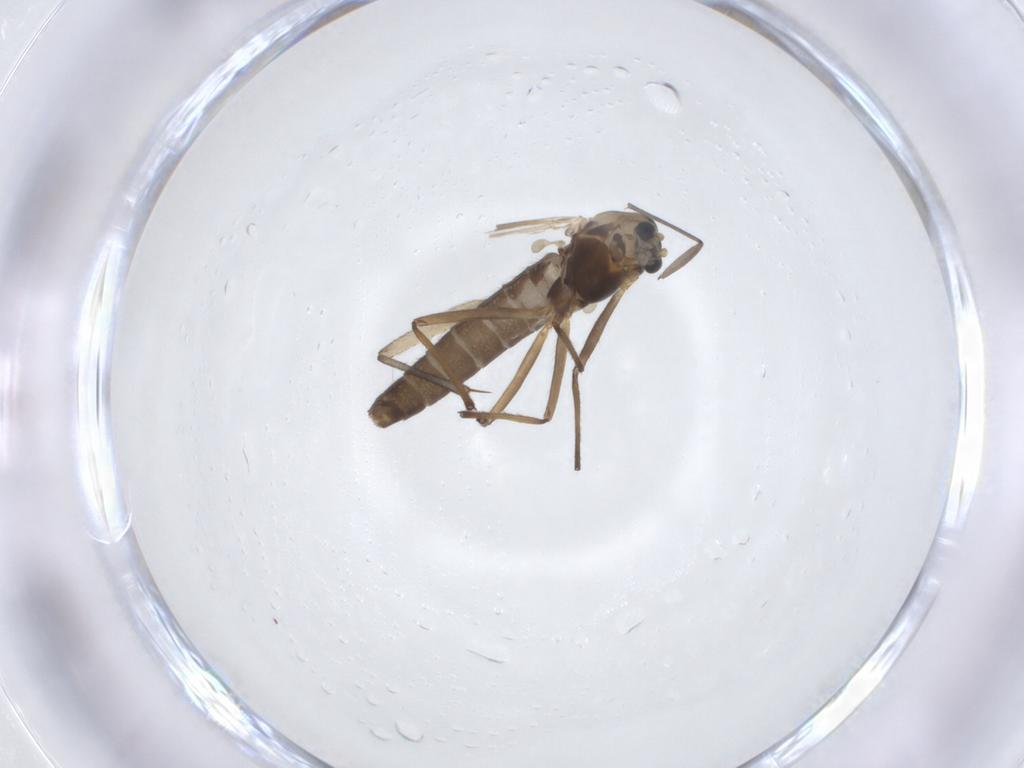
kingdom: Animalia
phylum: Arthropoda
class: Insecta
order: Diptera
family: Chironomidae
